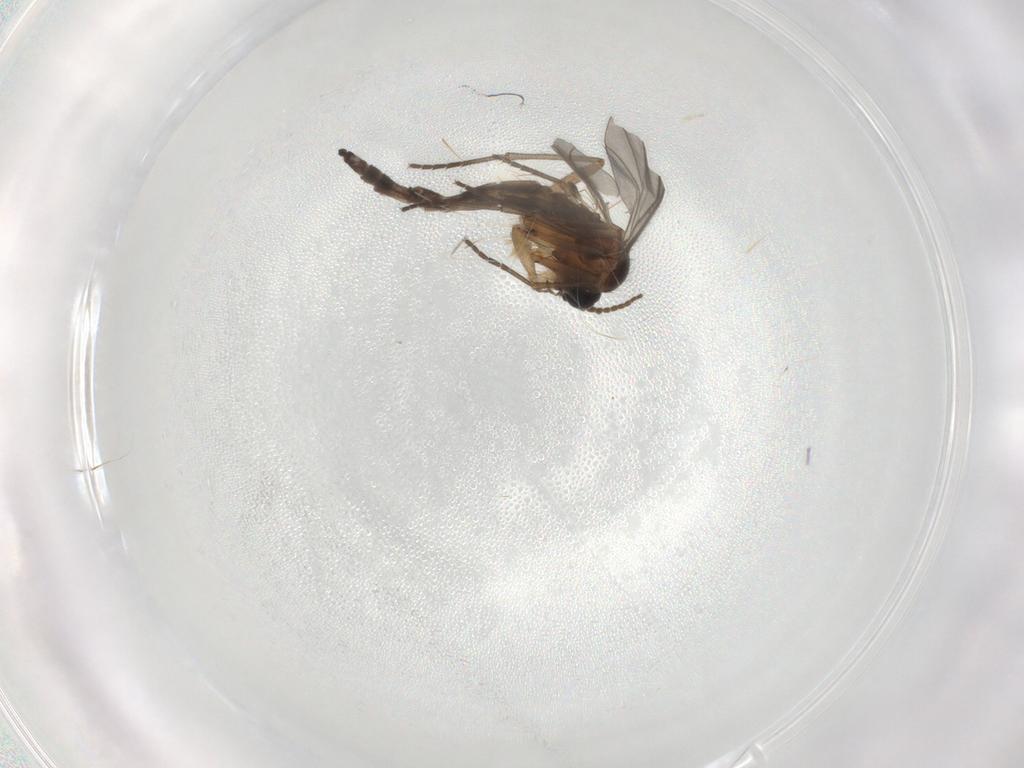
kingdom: Animalia
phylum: Arthropoda
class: Insecta
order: Diptera
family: Sciaridae
